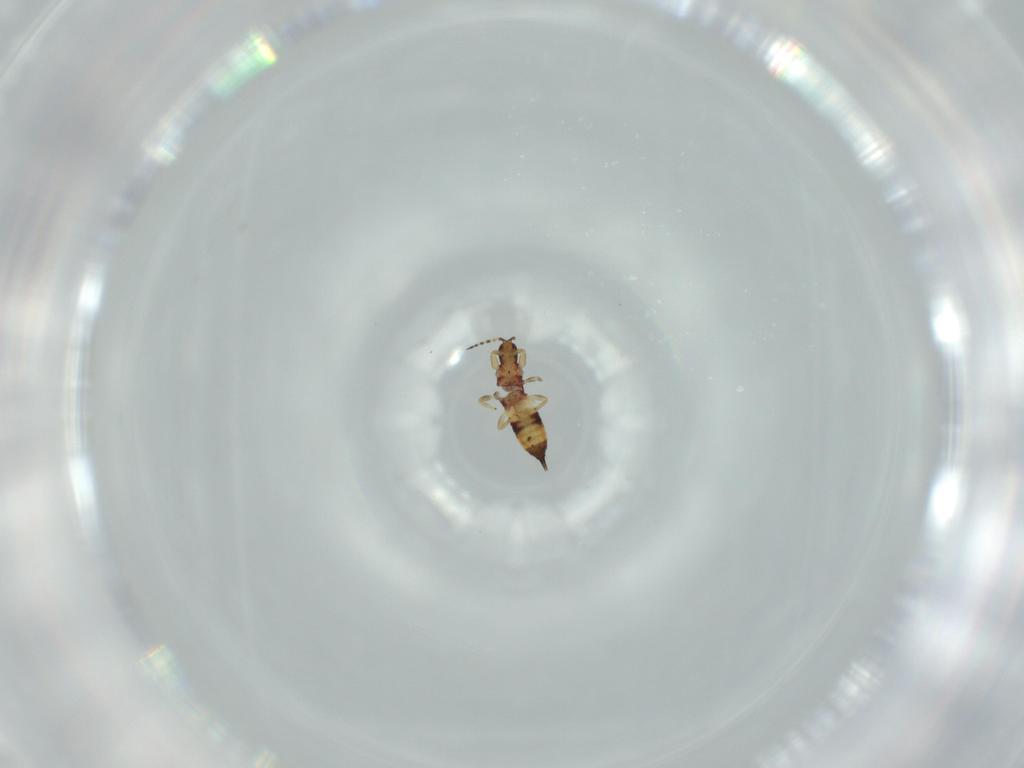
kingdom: Animalia
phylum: Arthropoda
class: Insecta
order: Thysanoptera
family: Phlaeothripidae
